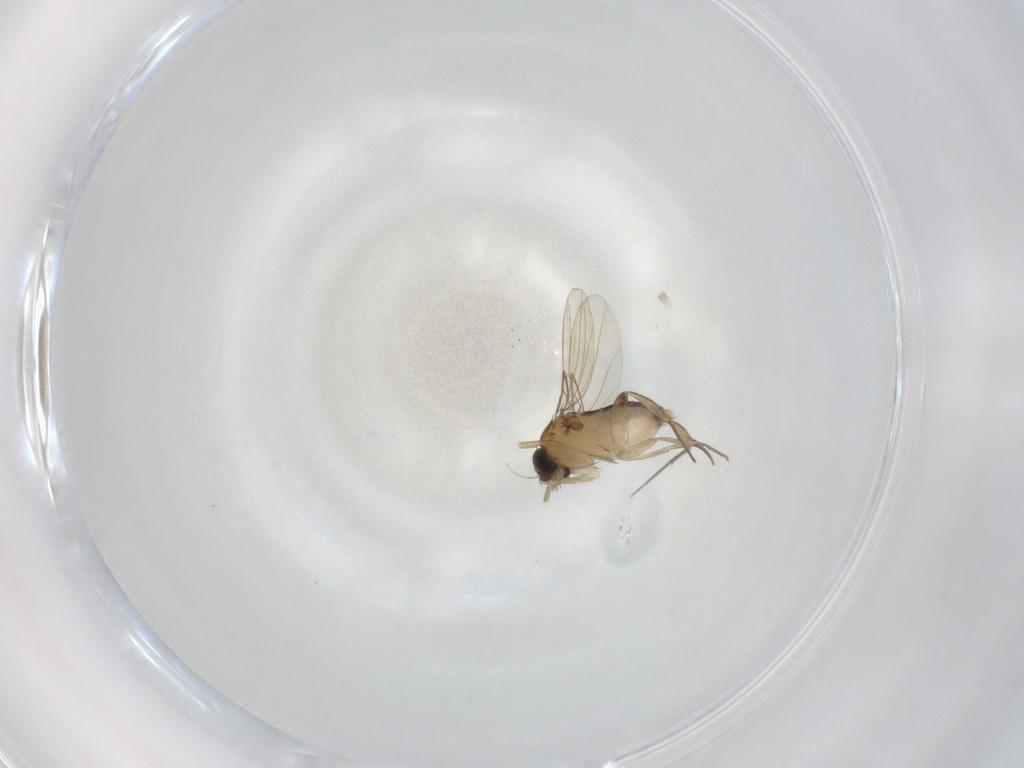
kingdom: Animalia
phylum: Arthropoda
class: Insecta
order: Diptera
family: Phoridae
